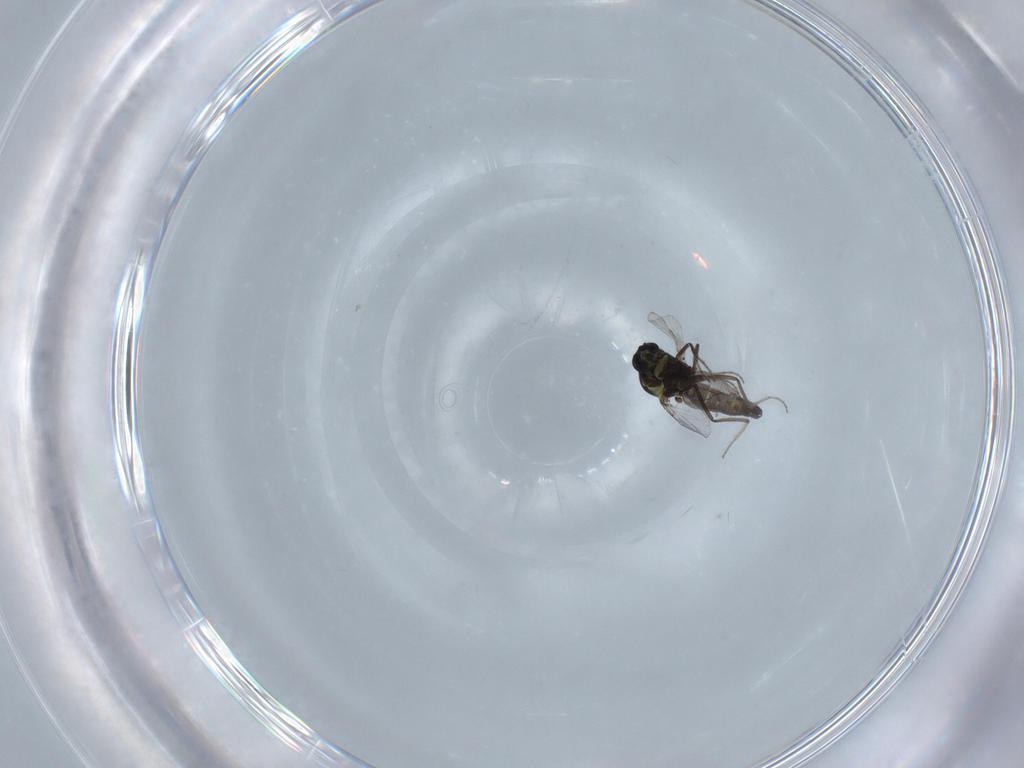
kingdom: Animalia
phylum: Arthropoda
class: Insecta
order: Diptera
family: Ceratopogonidae
